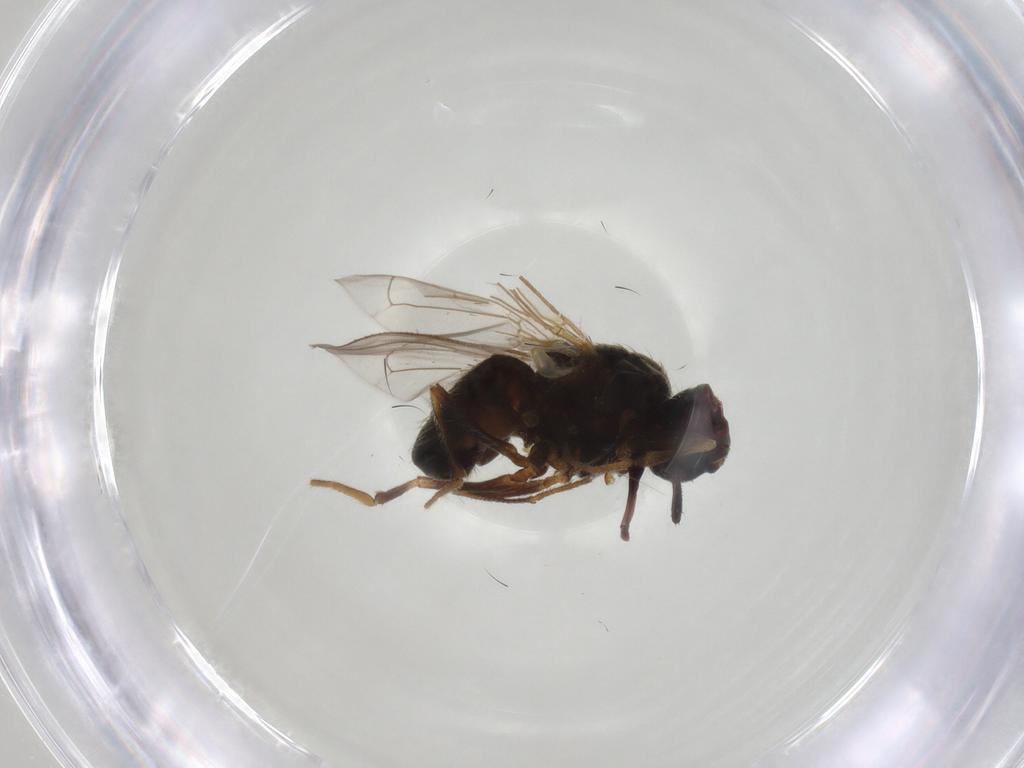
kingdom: Animalia
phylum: Arthropoda
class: Insecta
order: Diptera
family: Ceratopogonidae
